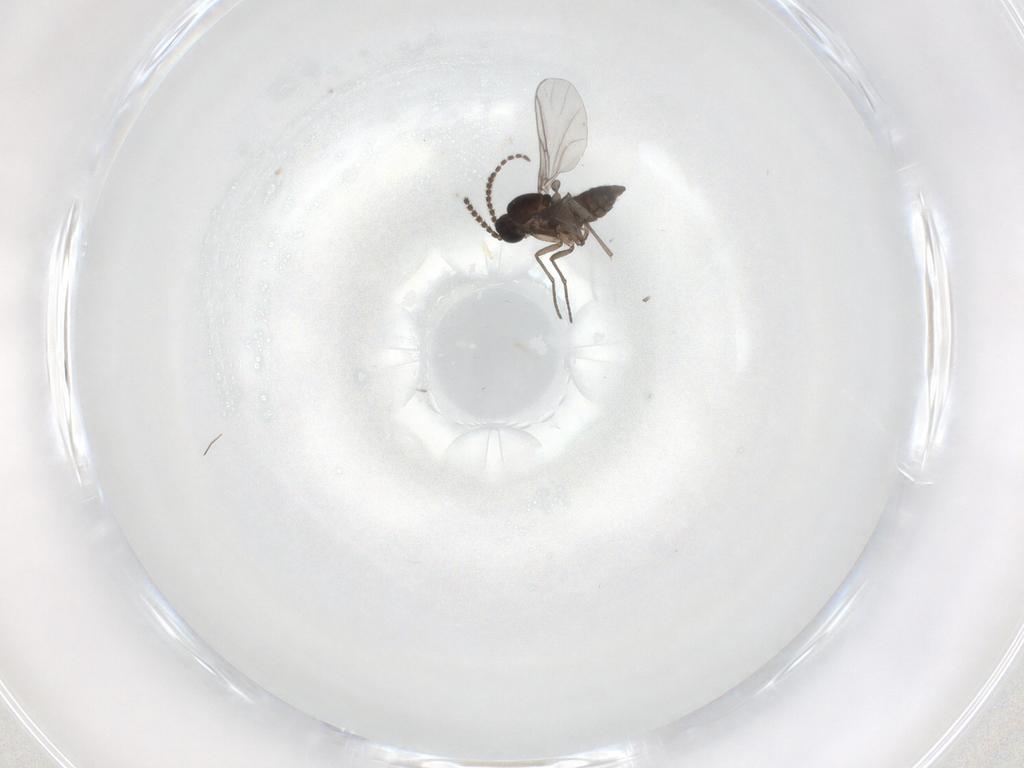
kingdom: Animalia
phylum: Arthropoda
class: Insecta
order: Diptera
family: Sciaridae
